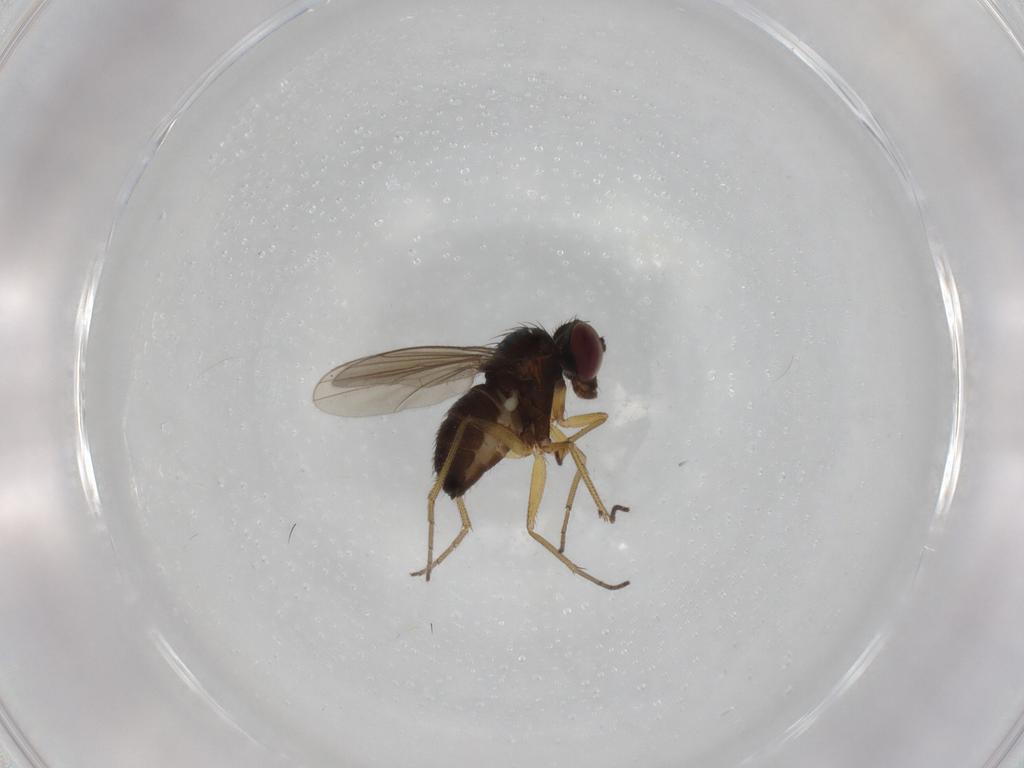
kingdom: Animalia
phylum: Arthropoda
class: Insecta
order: Diptera
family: Dolichopodidae
